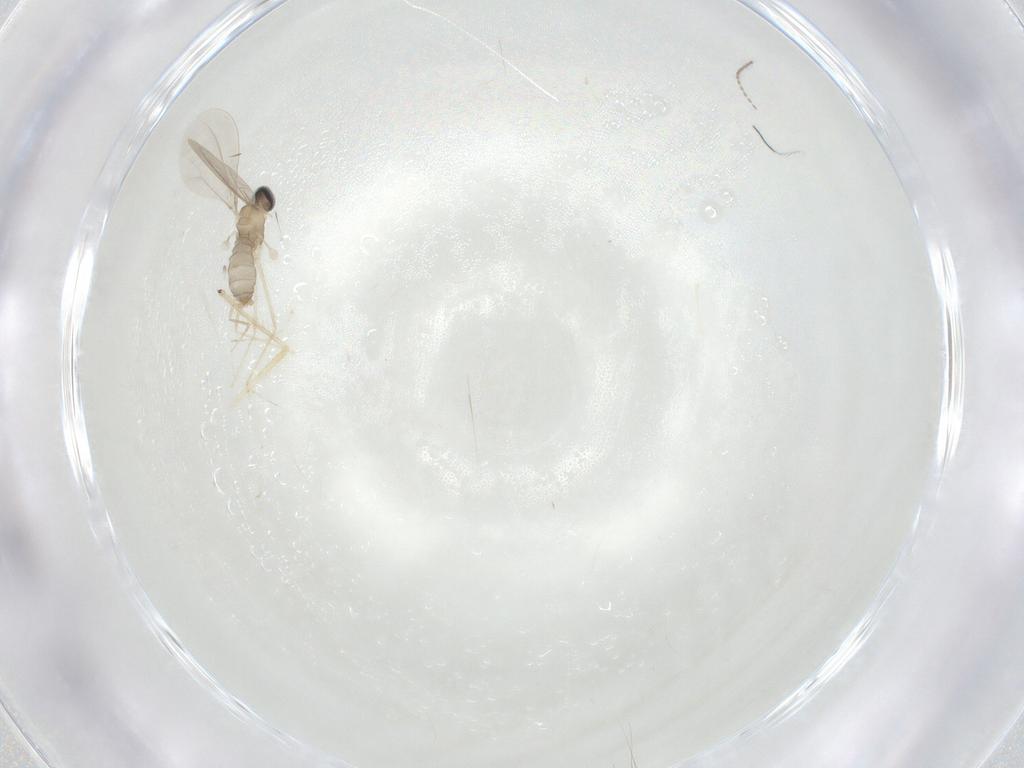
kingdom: Animalia
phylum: Arthropoda
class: Insecta
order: Diptera
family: Cecidomyiidae
